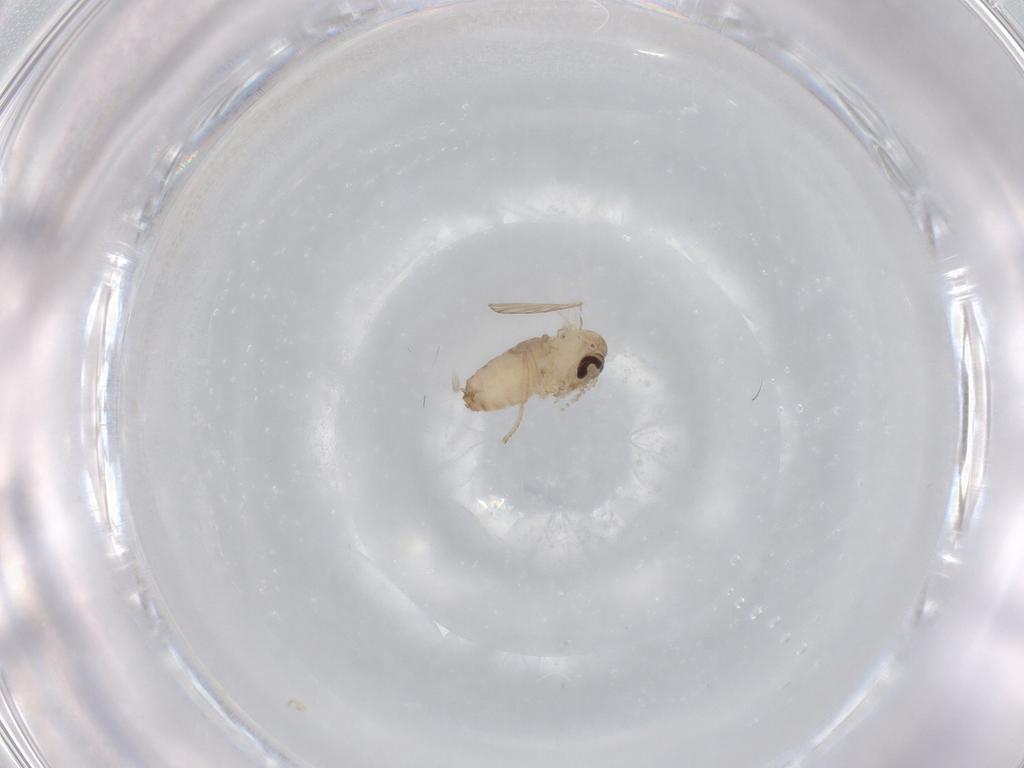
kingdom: Animalia
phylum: Arthropoda
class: Insecta
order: Diptera
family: Psychodidae
